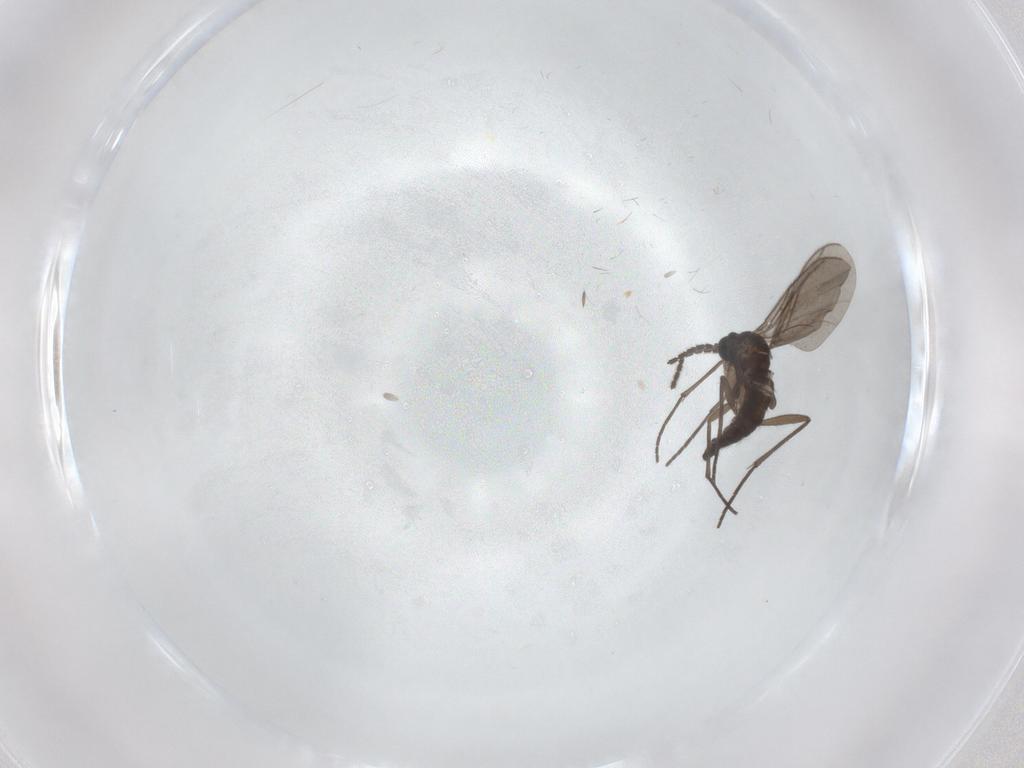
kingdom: Animalia
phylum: Arthropoda
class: Insecta
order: Diptera
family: Sciaridae
